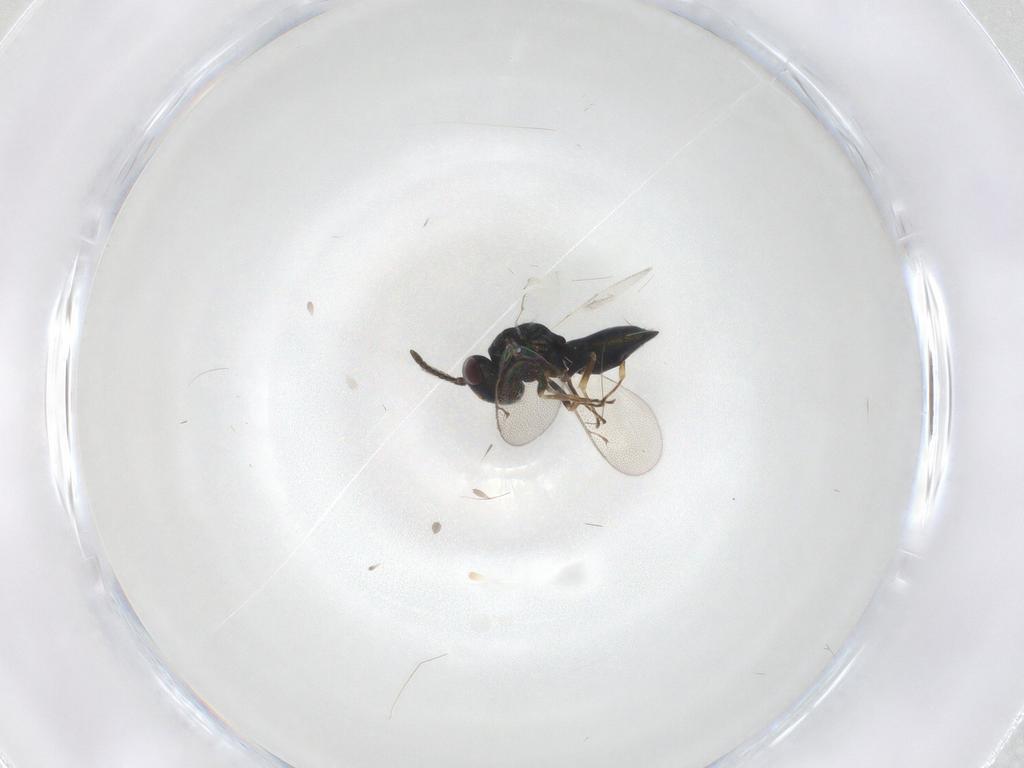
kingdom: Animalia
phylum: Arthropoda
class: Insecta
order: Hymenoptera
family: Pteromalidae
